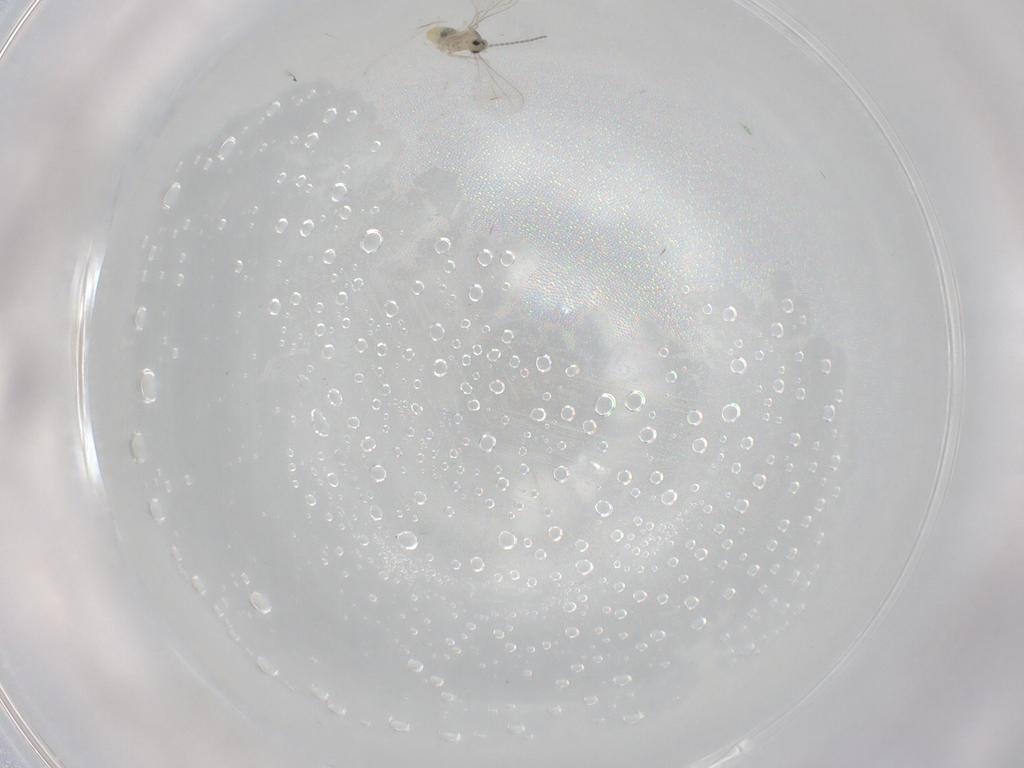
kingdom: Animalia
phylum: Arthropoda
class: Insecta
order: Diptera
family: Cecidomyiidae
